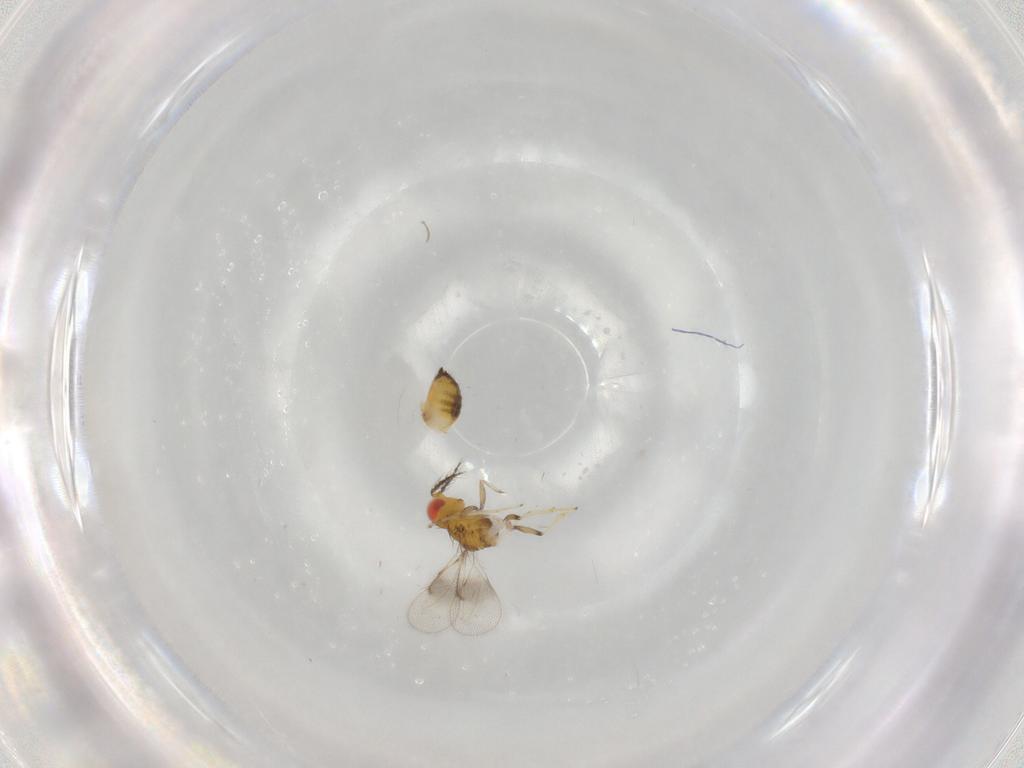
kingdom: Animalia
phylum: Arthropoda
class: Insecta
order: Hymenoptera
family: Eulophidae
